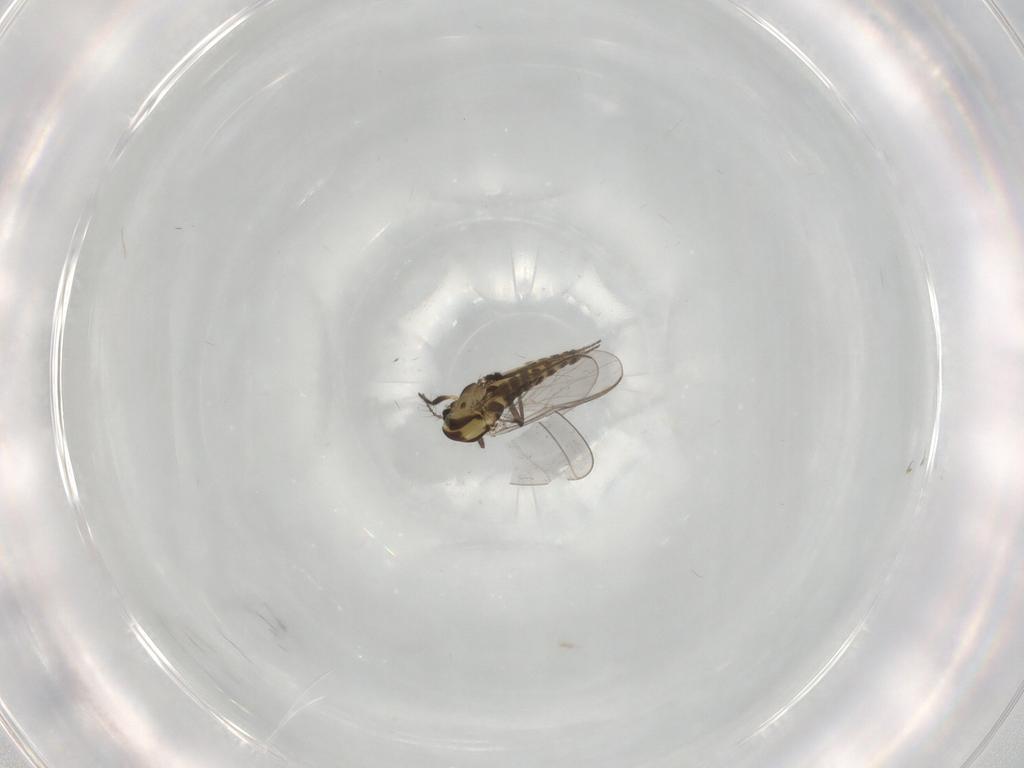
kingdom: Animalia
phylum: Arthropoda
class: Insecta
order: Diptera
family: Chironomidae
